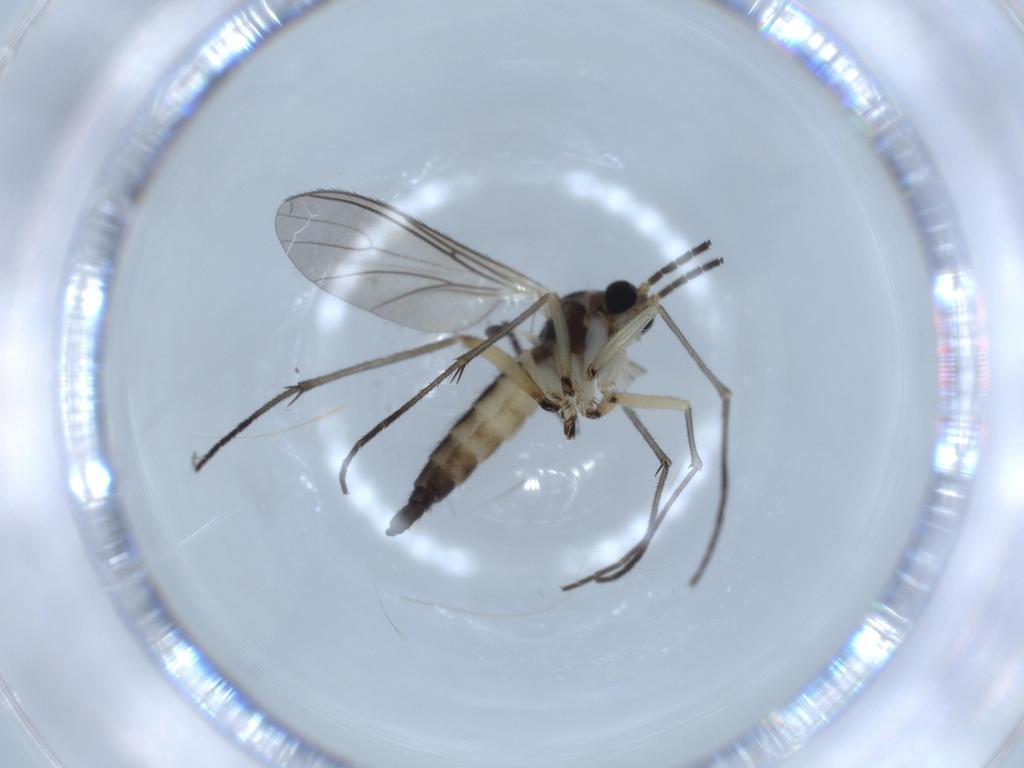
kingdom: Animalia
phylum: Arthropoda
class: Insecta
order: Diptera
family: Cecidomyiidae
